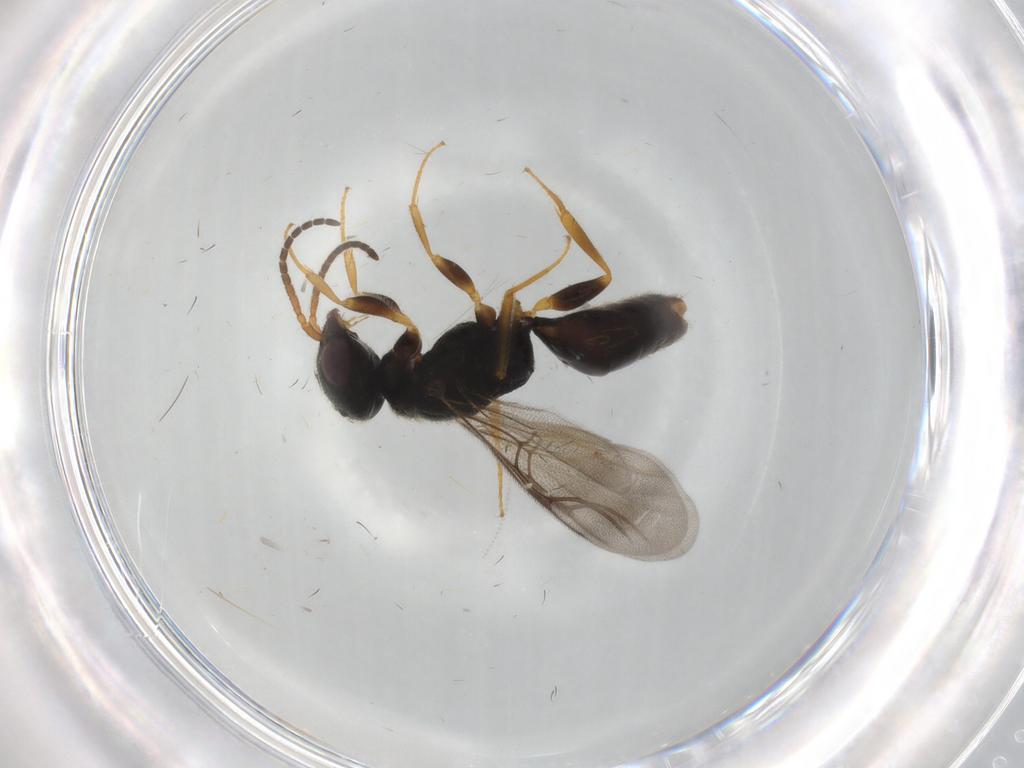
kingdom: Animalia
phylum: Arthropoda
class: Insecta
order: Hymenoptera
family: Bethylidae
